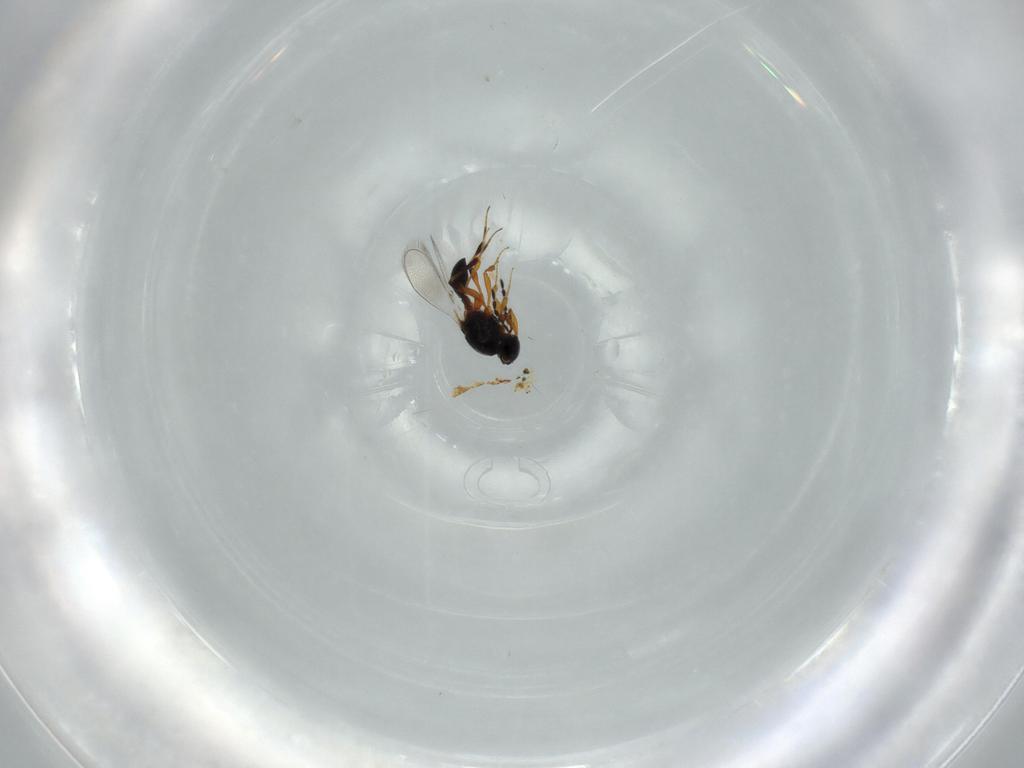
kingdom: Animalia
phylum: Arthropoda
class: Insecta
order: Hymenoptera
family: Platygastridae
